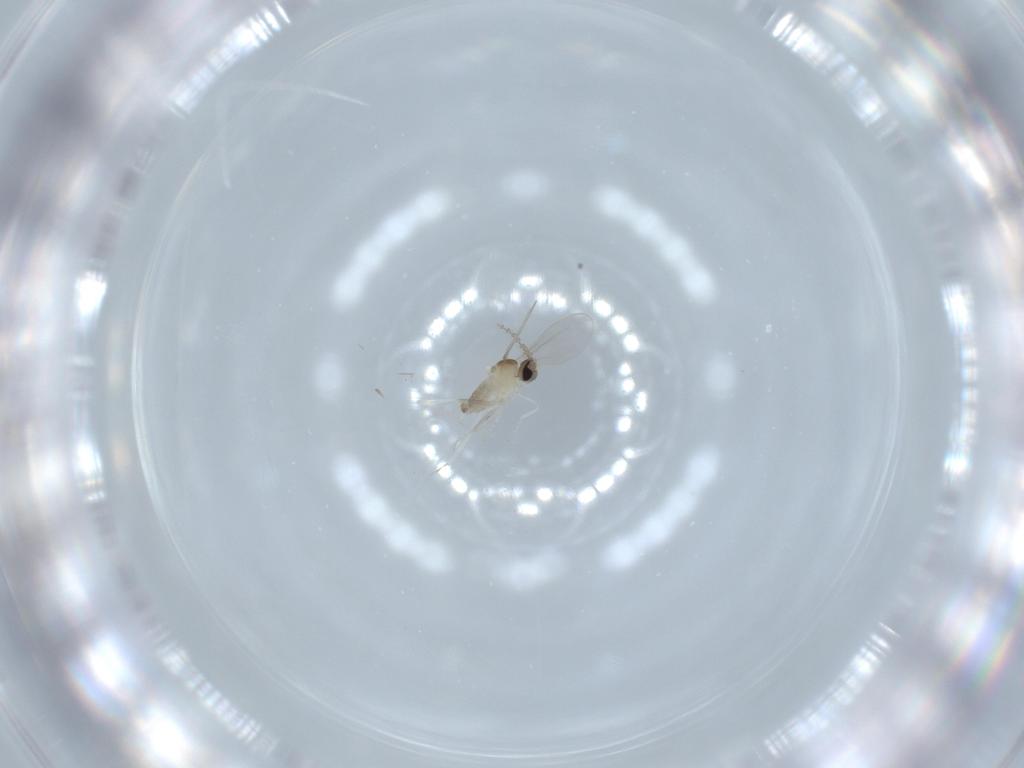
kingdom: Animalia
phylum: Arthropoda
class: Insecta
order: Diptera
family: Cecidomyiidae
